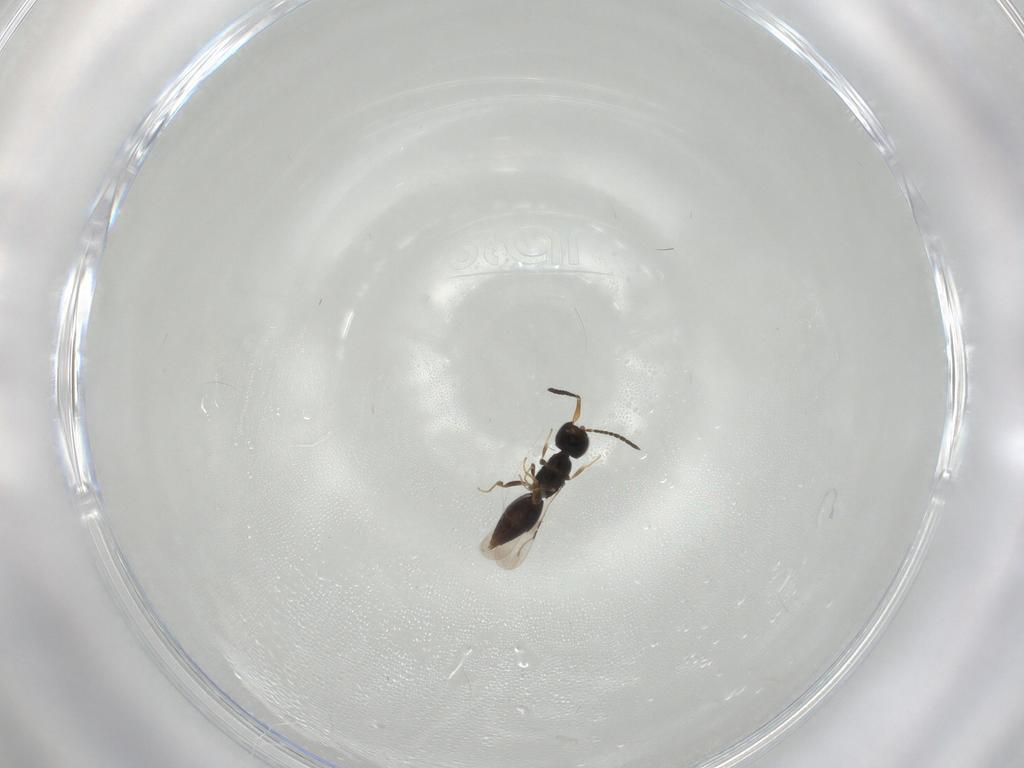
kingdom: Animalia
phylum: Arthropoda
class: Insecta
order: Hymenoptera
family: Ceraphronidae
